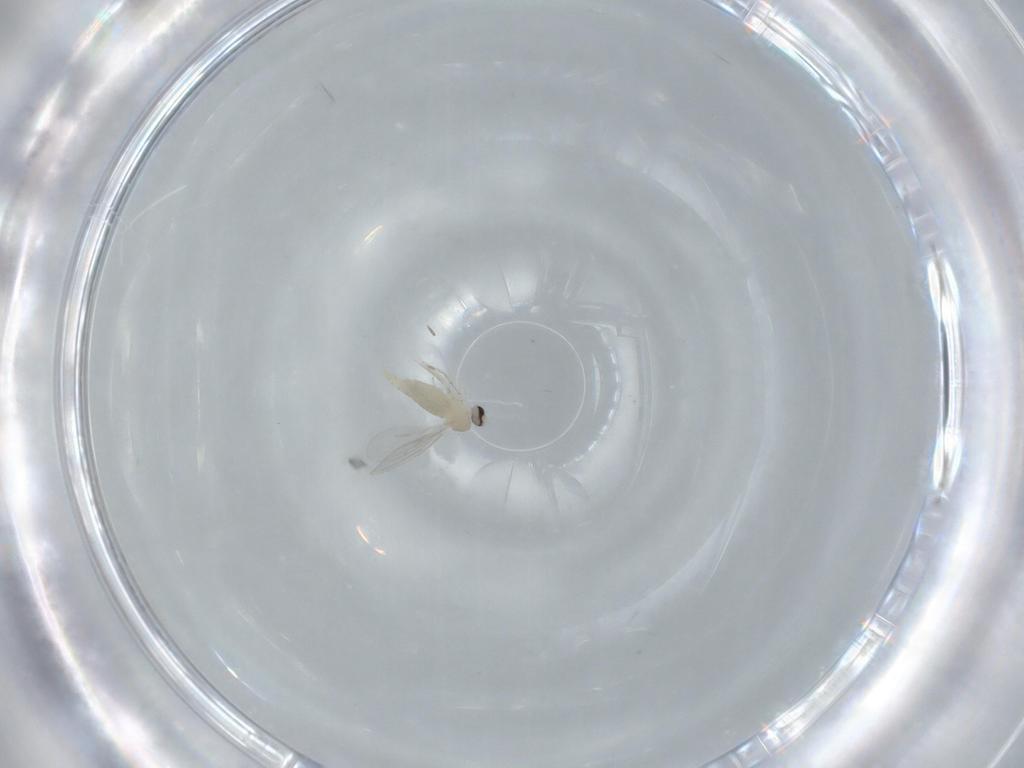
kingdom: Animalia
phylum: Arthropoda
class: Insecta
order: Diptera
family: Cecidomyiidae
